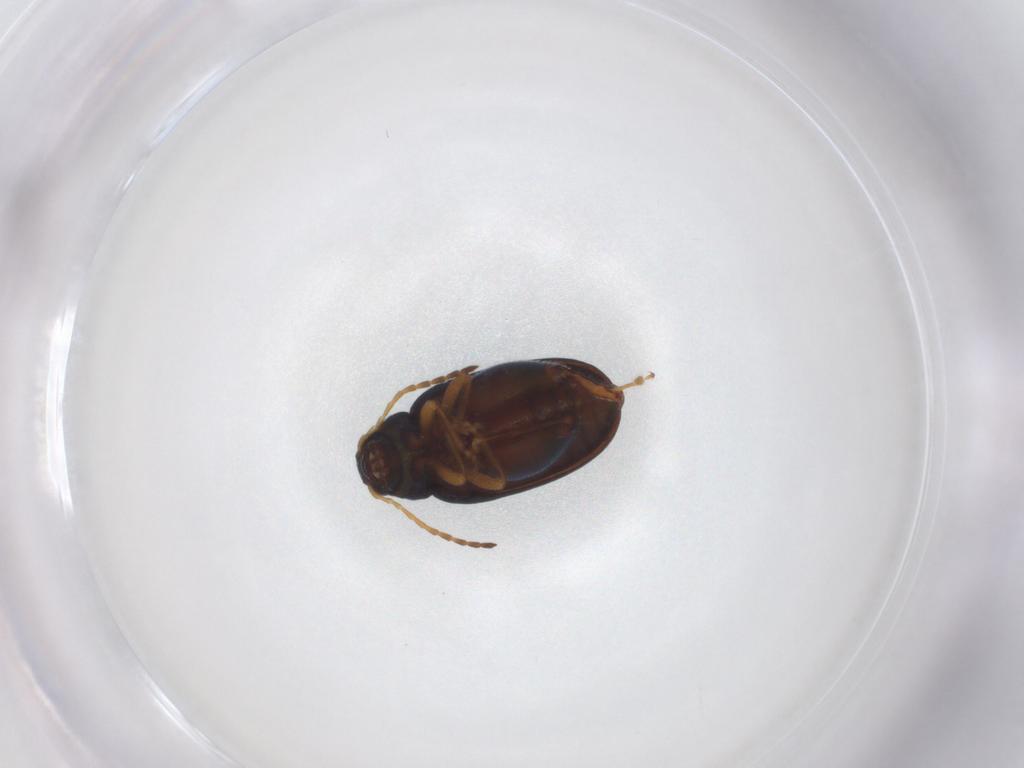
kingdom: Animalia
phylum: Arthropoda
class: Insecta
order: Coleoptera
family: Chrysomelidae
